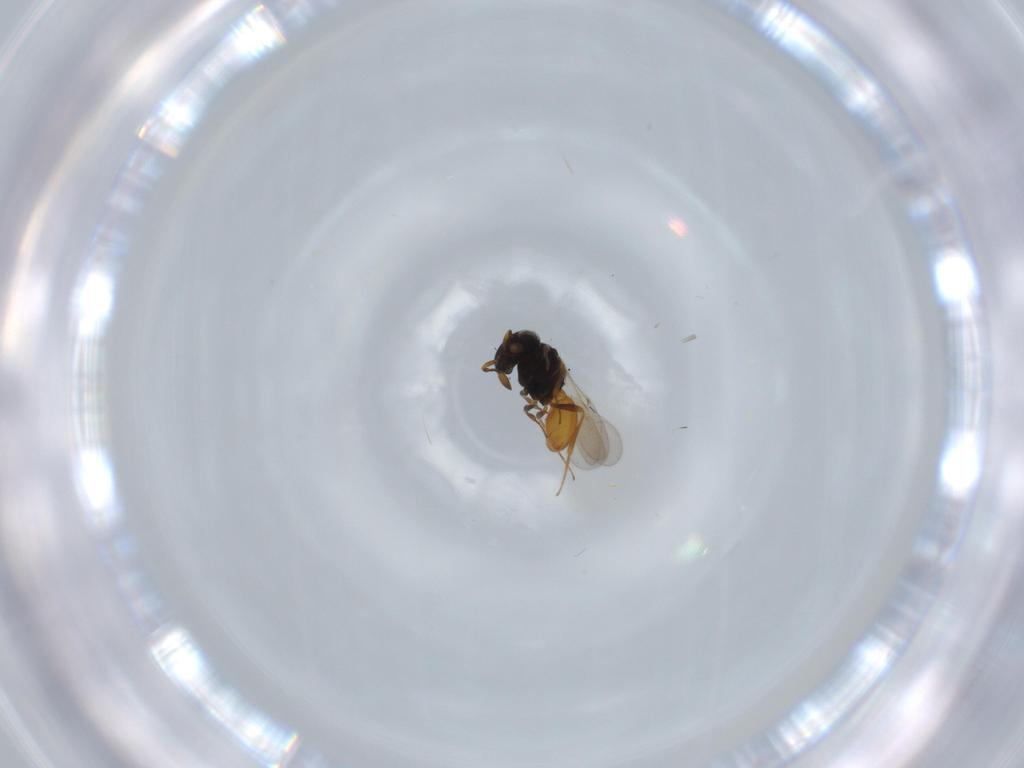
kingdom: Animalia
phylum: Arthropoda
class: Insecta
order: Hymenoptera
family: Scelionidae
